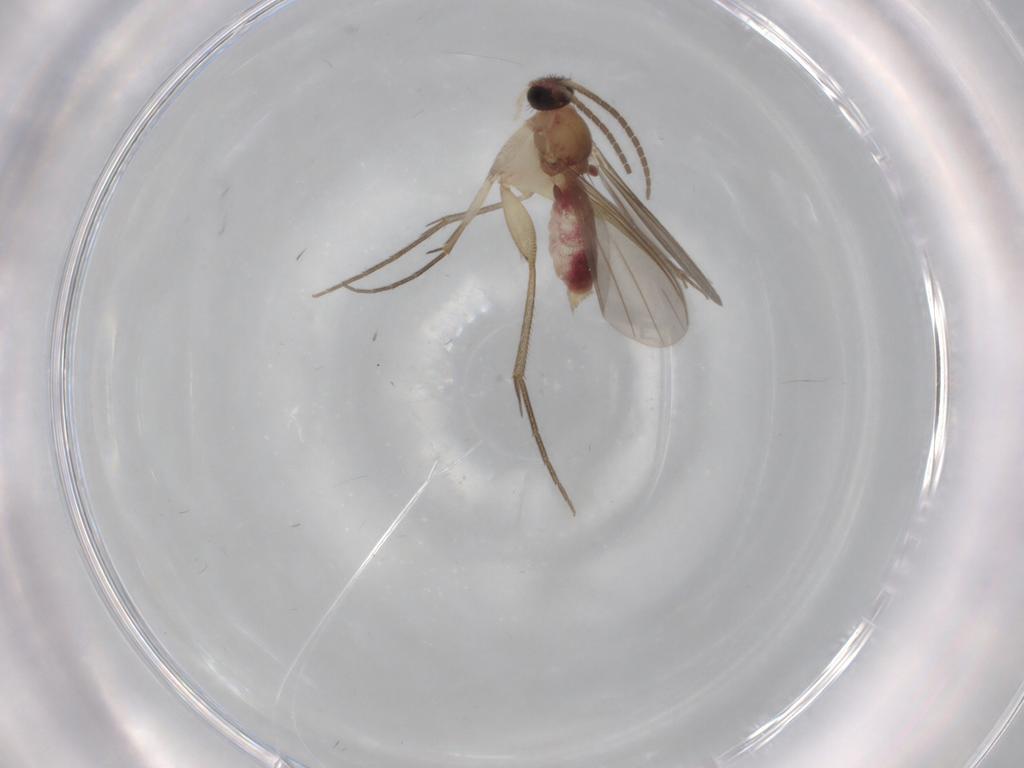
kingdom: Animalia
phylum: Arthropoda
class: Insecta
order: Diptera
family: Mycetophilidae
